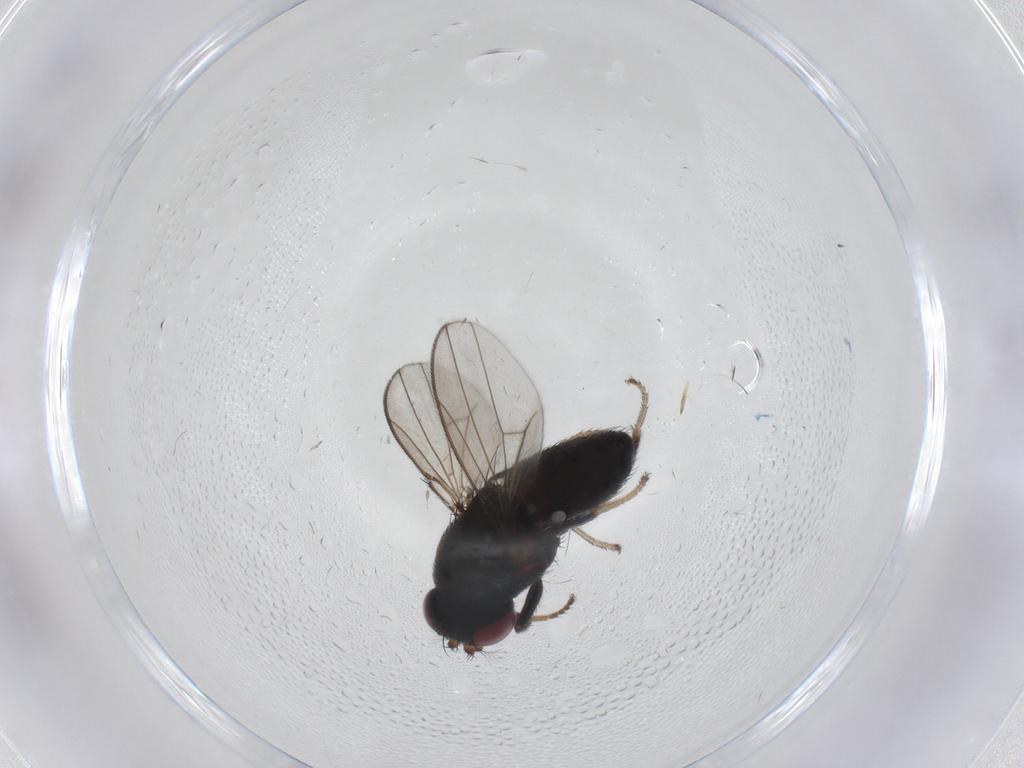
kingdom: Animalia
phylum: Arthropoda
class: Insecta
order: Diptera
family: Ephydridae
